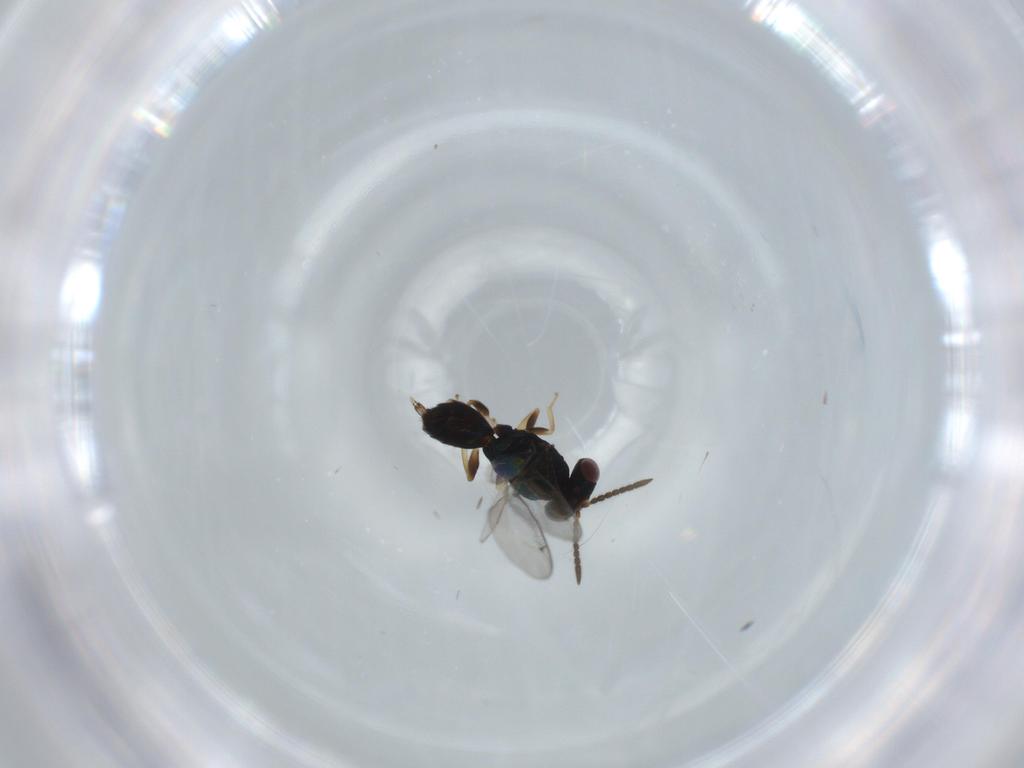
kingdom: Animalia
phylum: Arthropoda
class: Insecta
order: Hymenoptera
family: Pteromalidae
